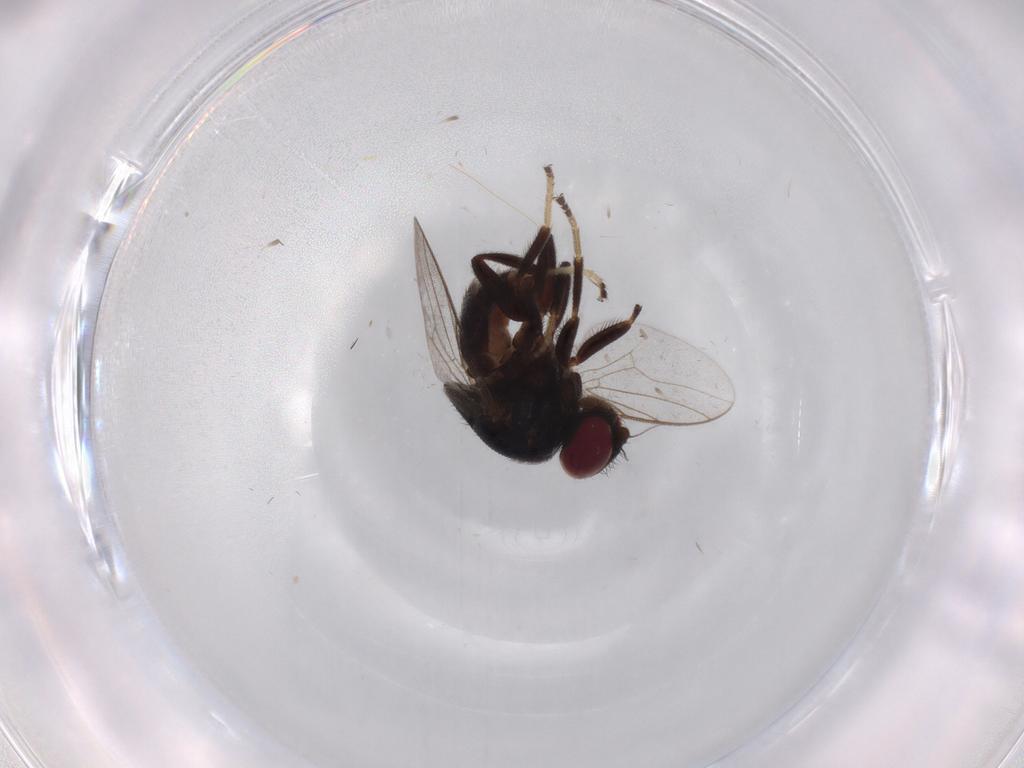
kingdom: Animalia
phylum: Arthropoda
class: Insecta
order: Diptera
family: Chloropidae
